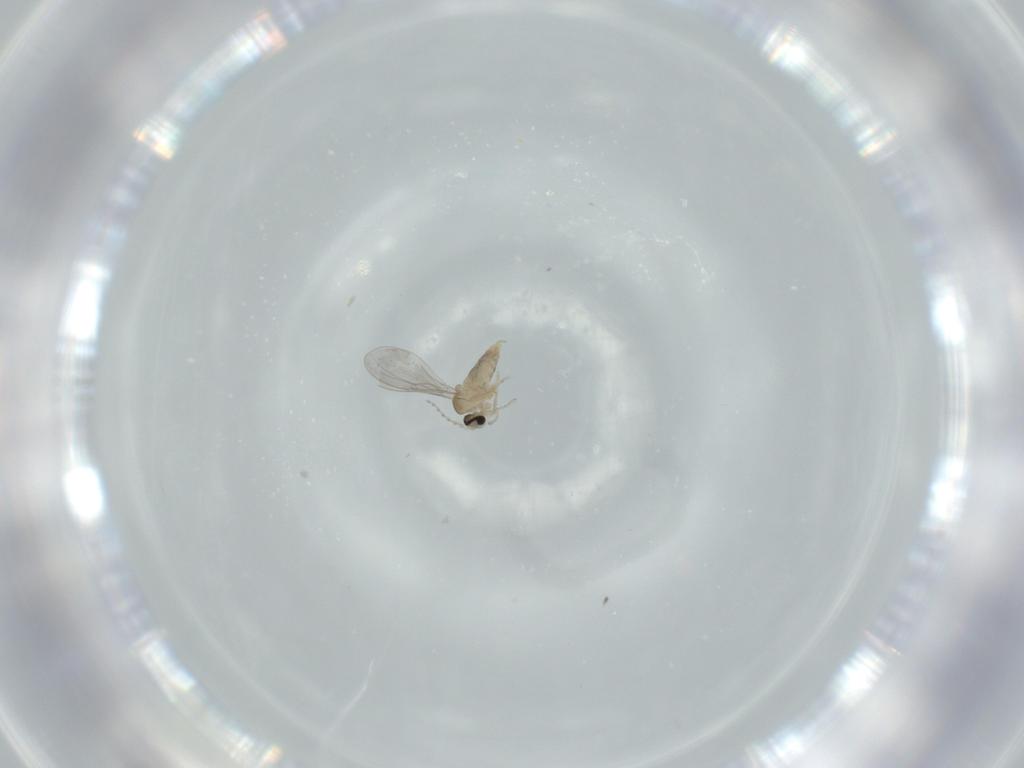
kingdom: Animalia
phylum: Arthropoda
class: Insecta
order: Diptera
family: Cecidomyiidae
